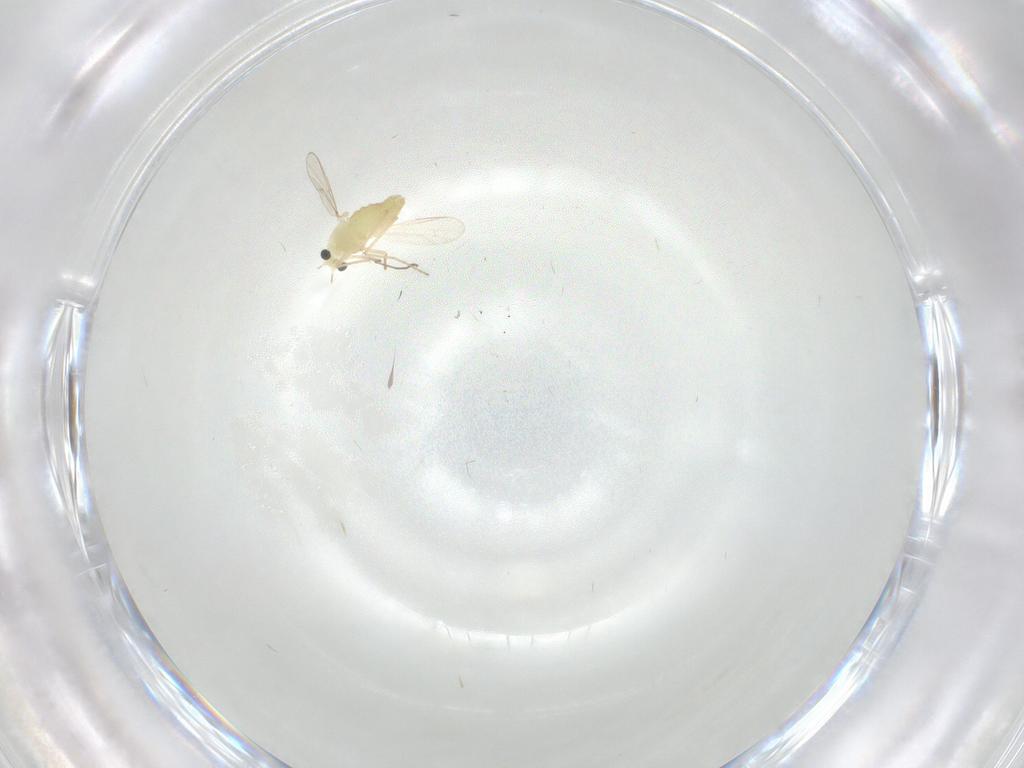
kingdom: Animalia
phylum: Arthropoda
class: Insecta
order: Diptera
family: Chironomidae
